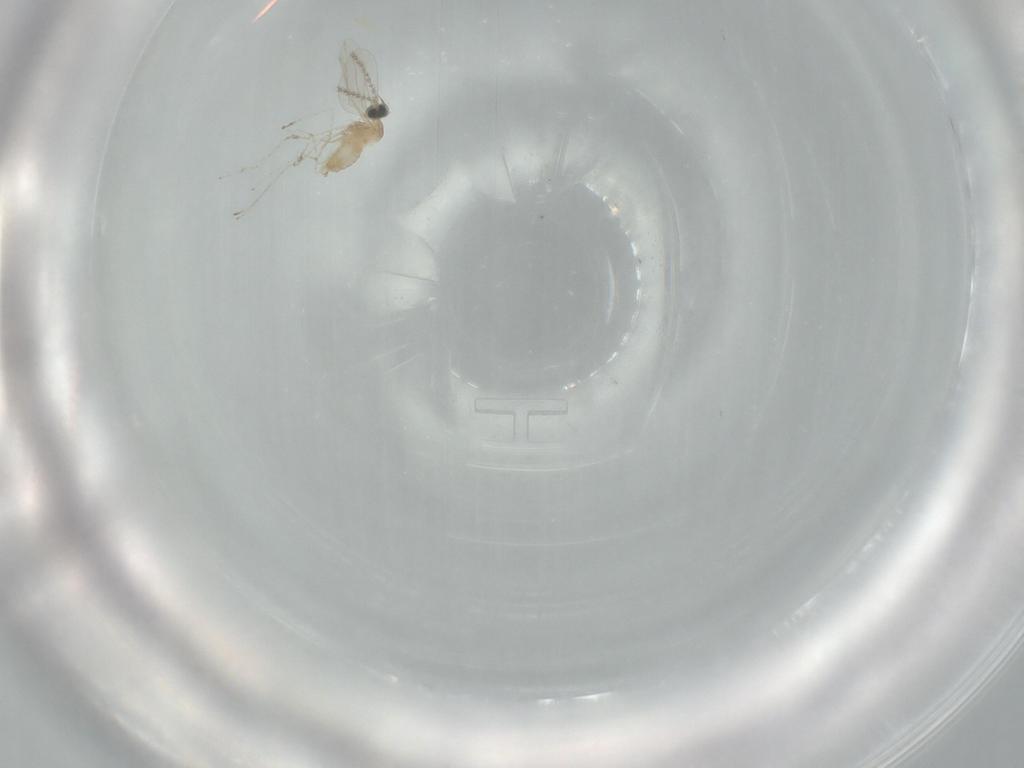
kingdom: Animalia
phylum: Arthropoda
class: Insecta
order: Diptera
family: Cecidomyiidae
